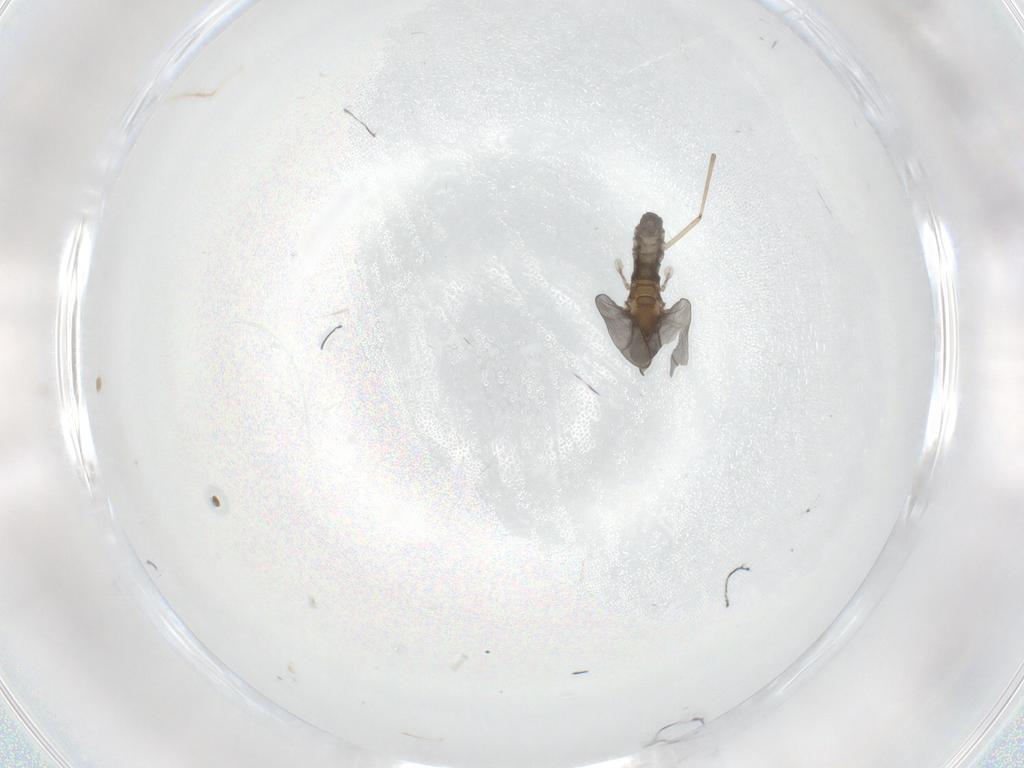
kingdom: Animalia
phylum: Arthropoda
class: Insecta
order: Diptera
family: Cecidomyiidae
